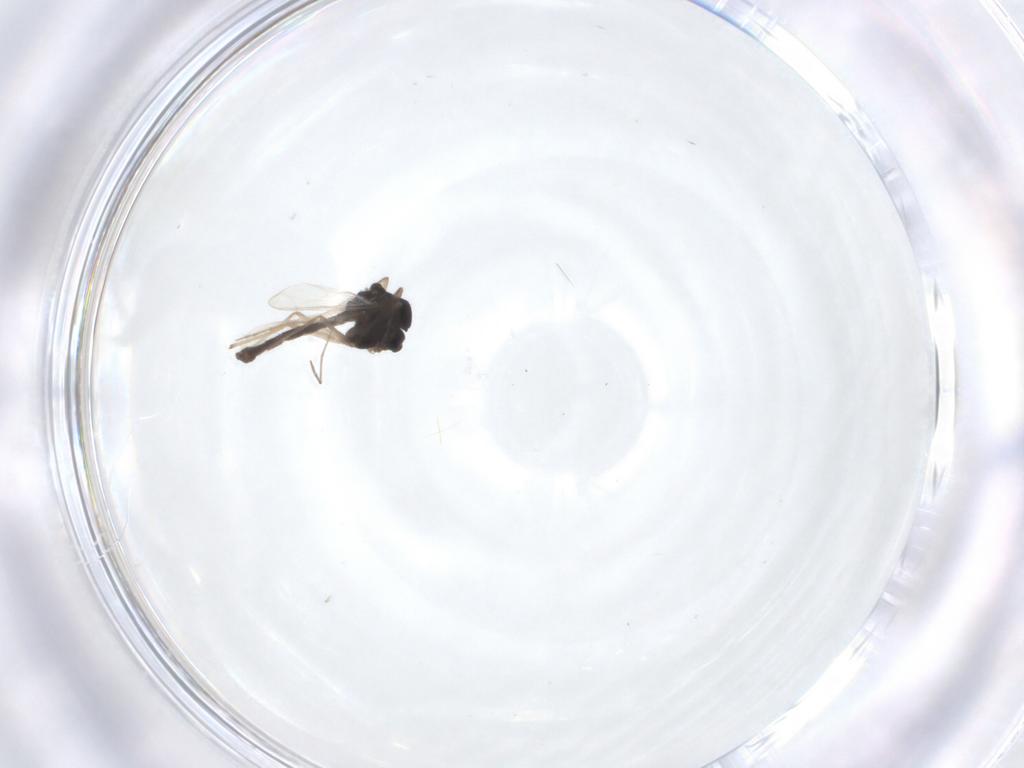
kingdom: Animalia
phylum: Arthropoda
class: Insecta
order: Diptera
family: Chironomidae
